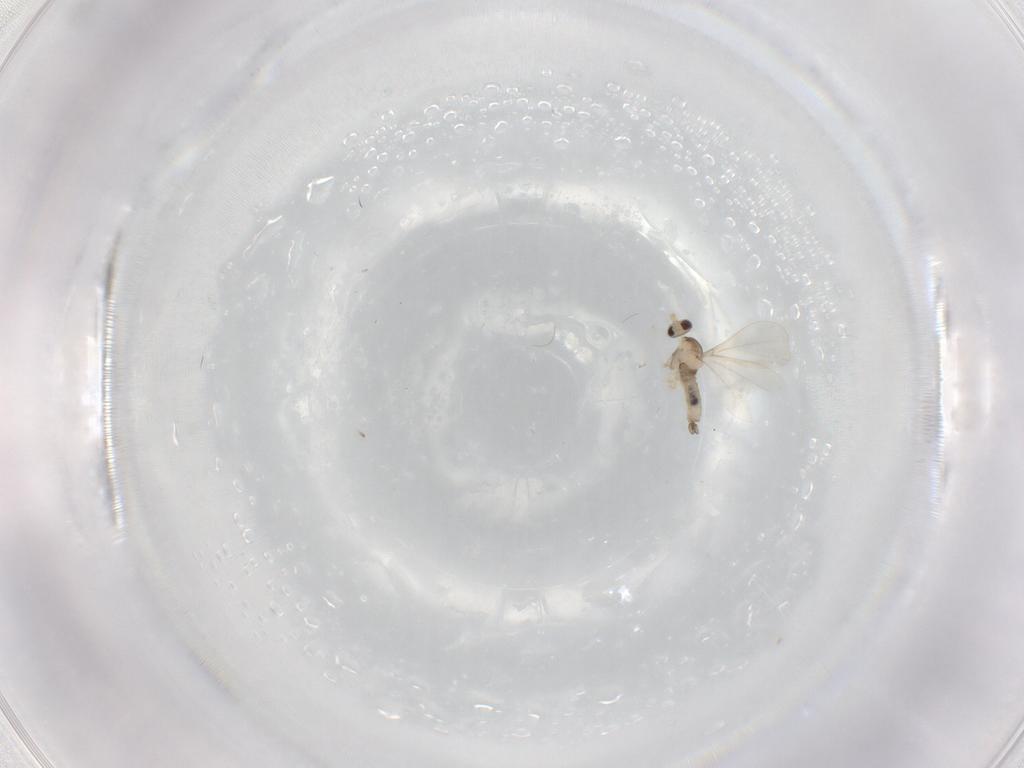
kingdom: Animalia
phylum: Arthropoda
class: Insecta
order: Diptera
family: Cecidomyiidae
